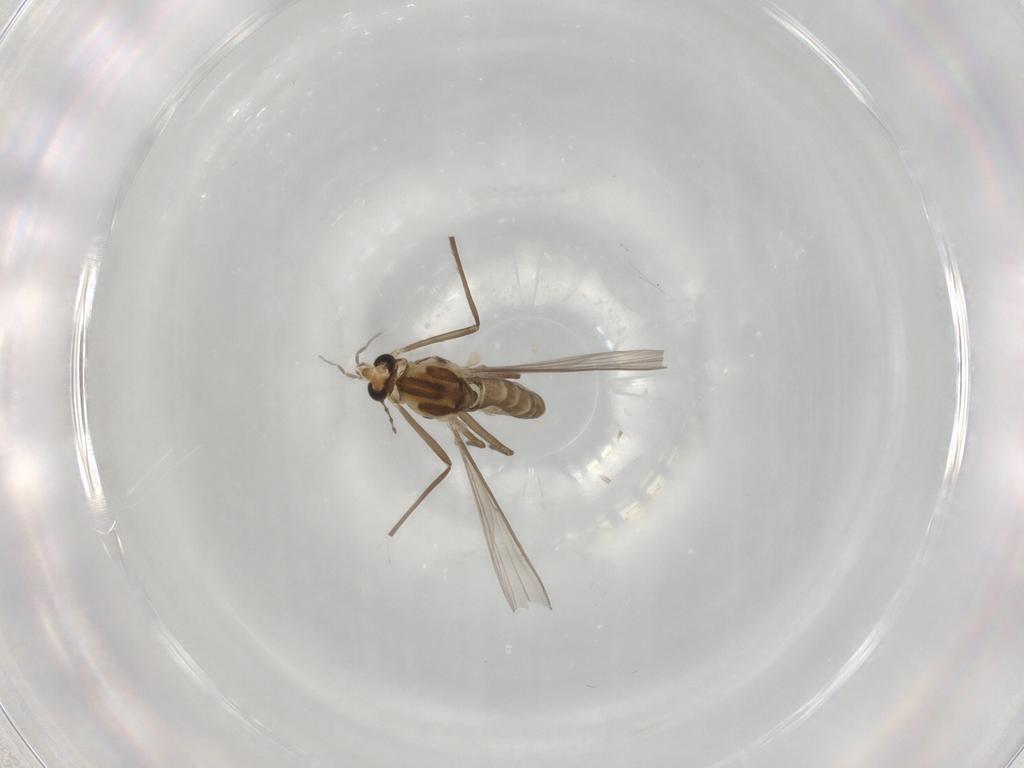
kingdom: Animalia
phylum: Arthropoda
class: Insecta
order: Diptera
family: Chironomidae
